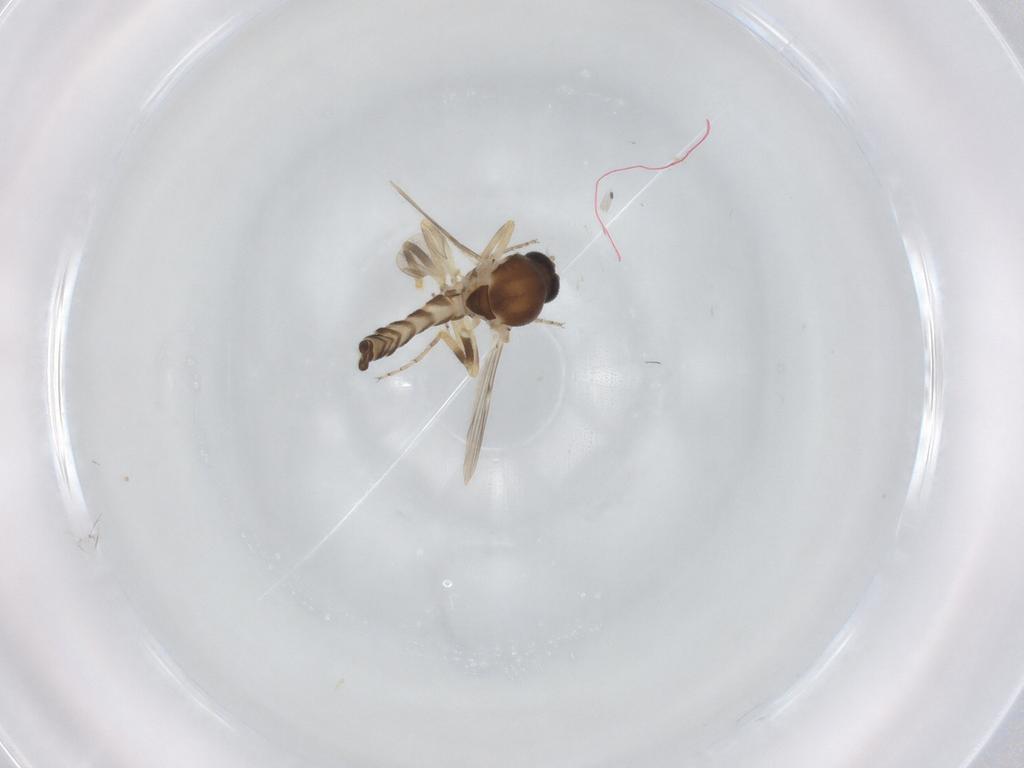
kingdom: Animalia
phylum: Arthropoda
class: Insecta
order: Diptera
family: Ceratopogonidae
